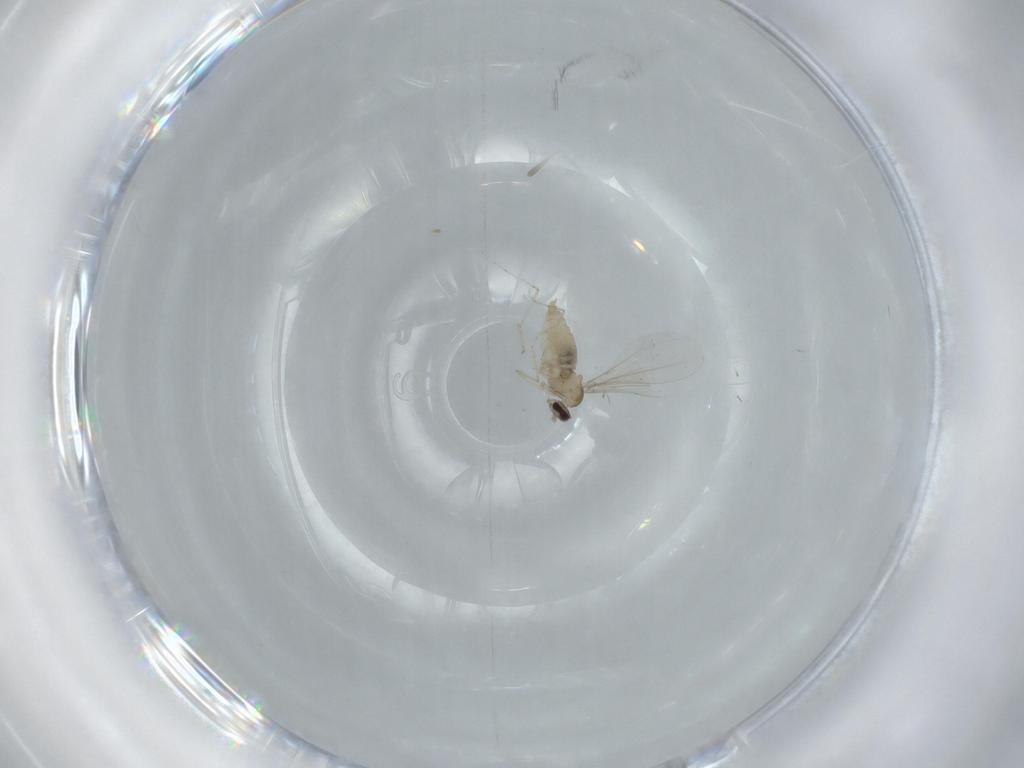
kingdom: Animalia
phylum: Arthropoda
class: Insecta
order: Diptera
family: Cecidomyiidae
